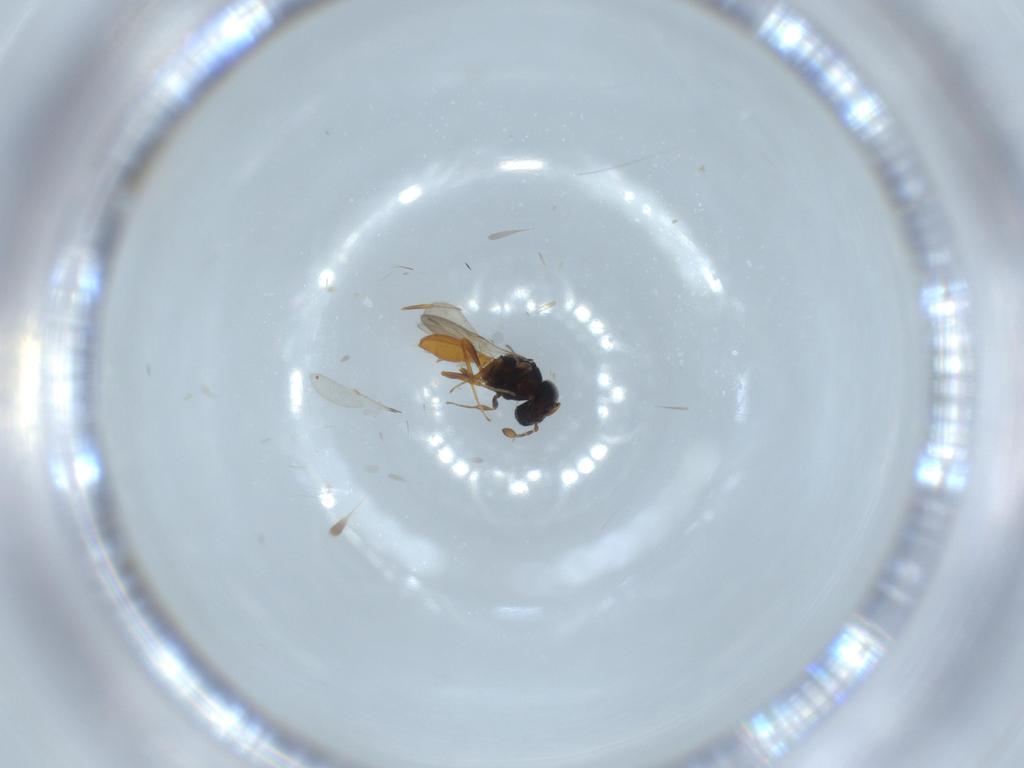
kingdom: Animalia
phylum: Arthropoda
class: Insecta
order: Hymenoptera
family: Scelionidae
